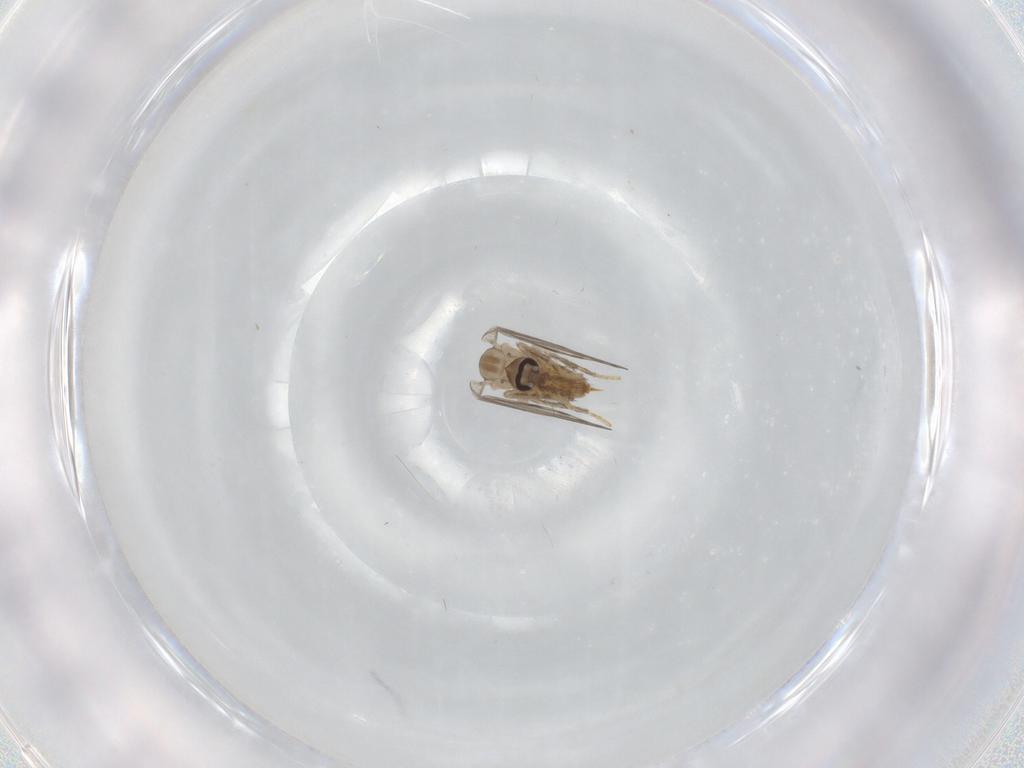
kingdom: Animalia
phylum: Arthropoda
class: Insecta
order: Diptera
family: Psychodidae
